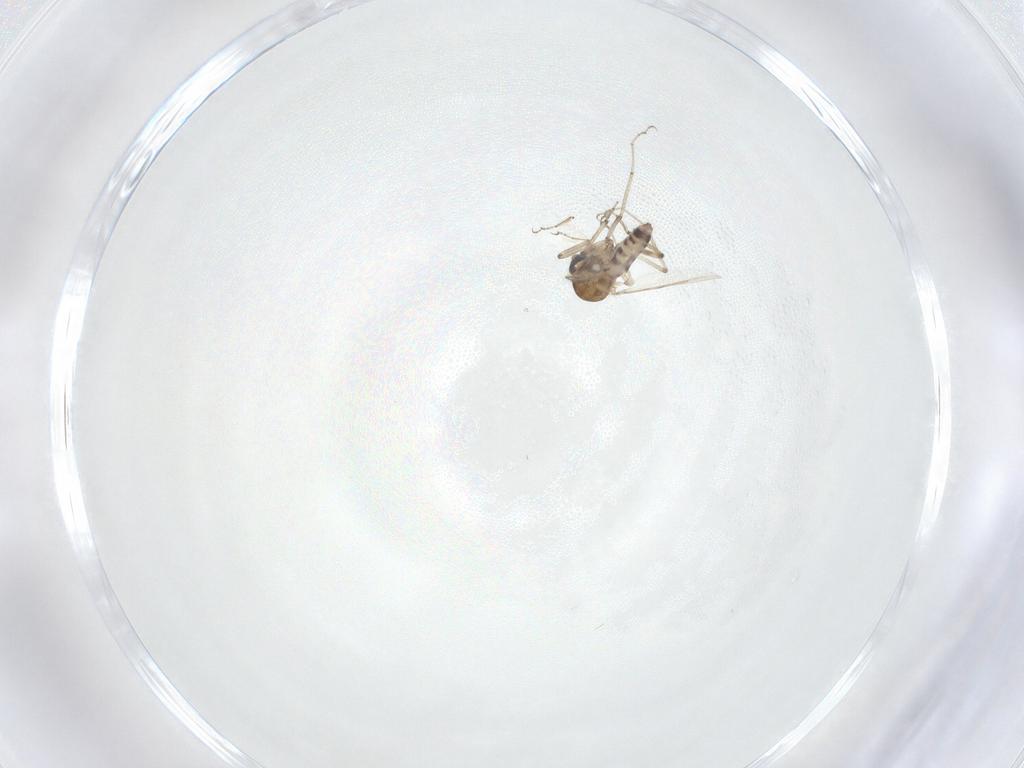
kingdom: Animalia
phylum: Arthropoda
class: Insecta
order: Diptera
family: Ceratopogonidae
